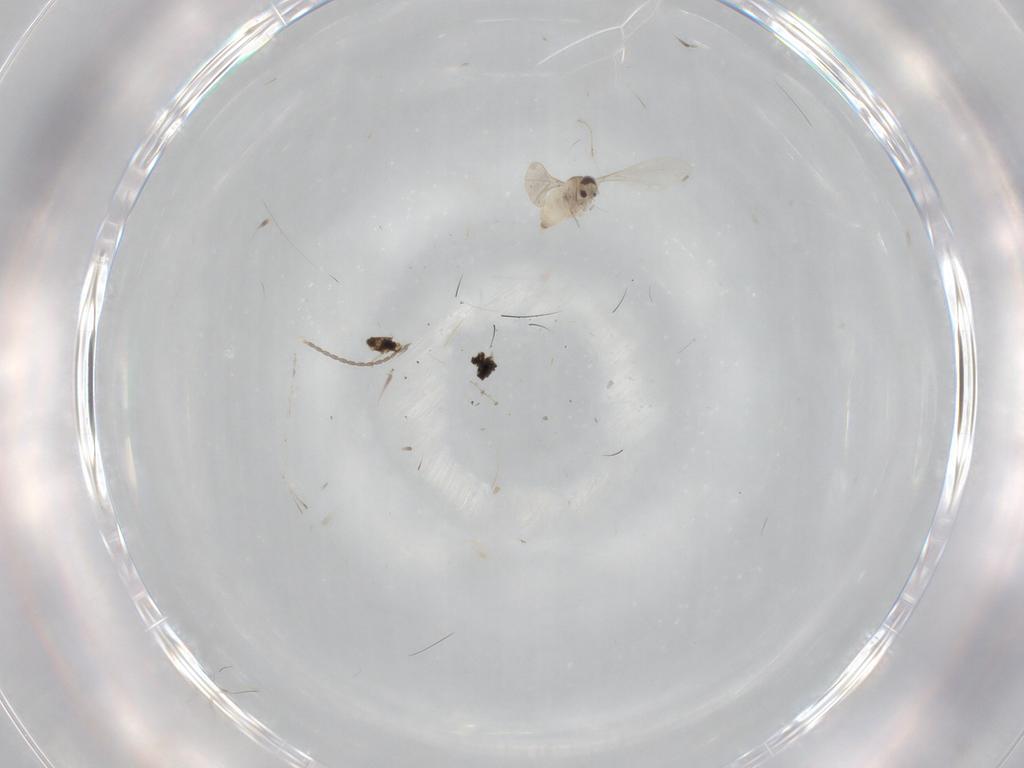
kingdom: Animalia
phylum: Arthropoda
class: Insecta
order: Diptera
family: Cecidomyiidae
